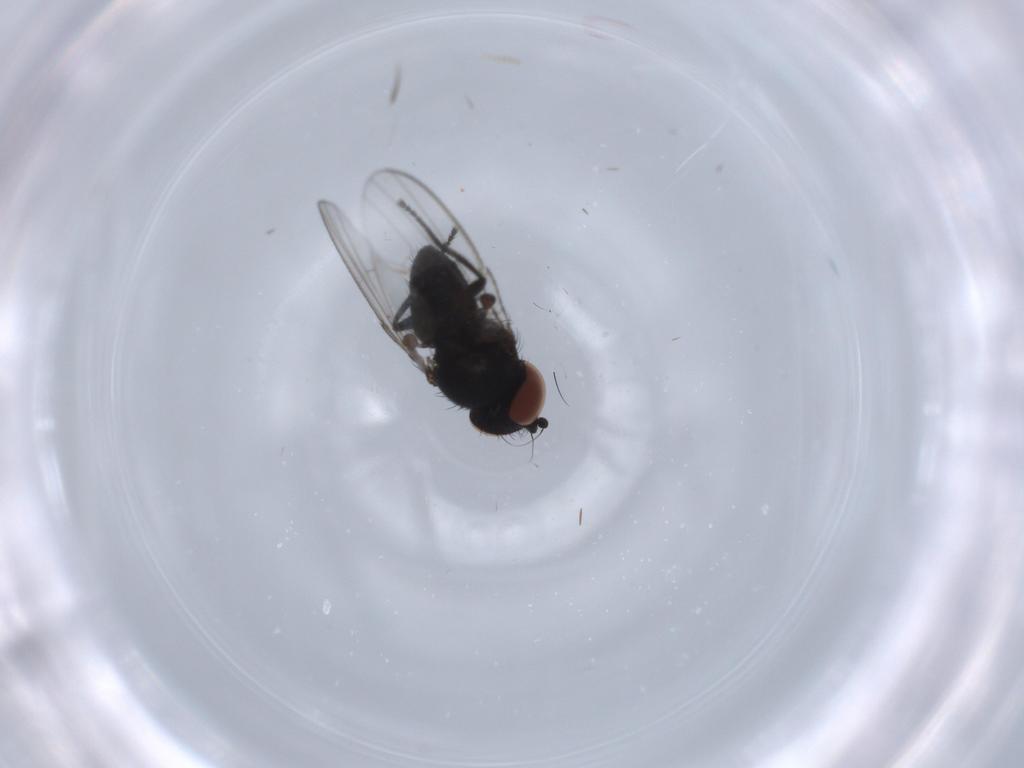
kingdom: Animalia
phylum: Arthropoda
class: Insecta
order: Diptera
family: Milichiidae
